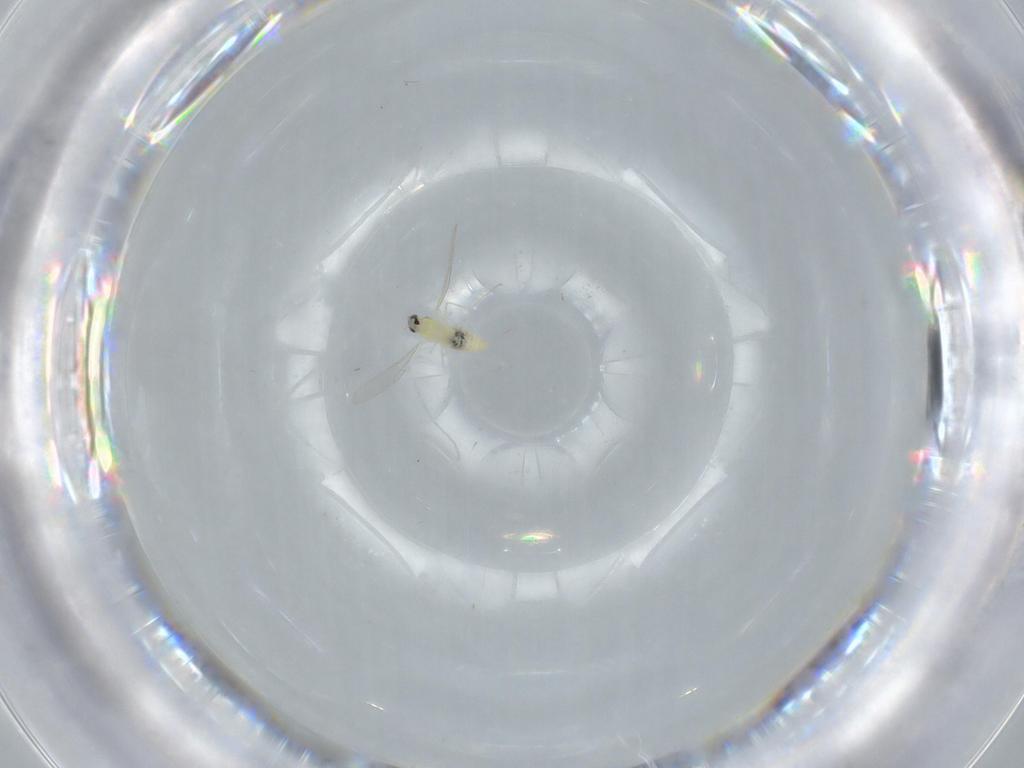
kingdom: Animalia
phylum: Arthropoda
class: Insecta
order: Diptera
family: Cecidomyiidae
